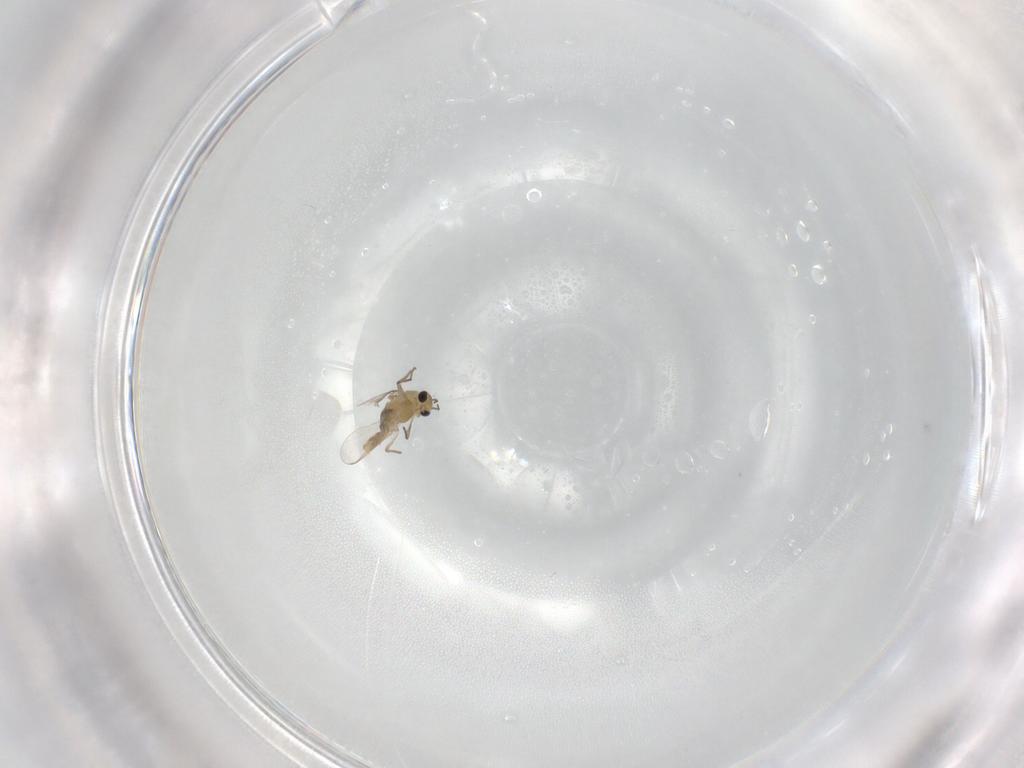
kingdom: Animalia
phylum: Arthropoda
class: Insecta
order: Diptera
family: Chironomidae
